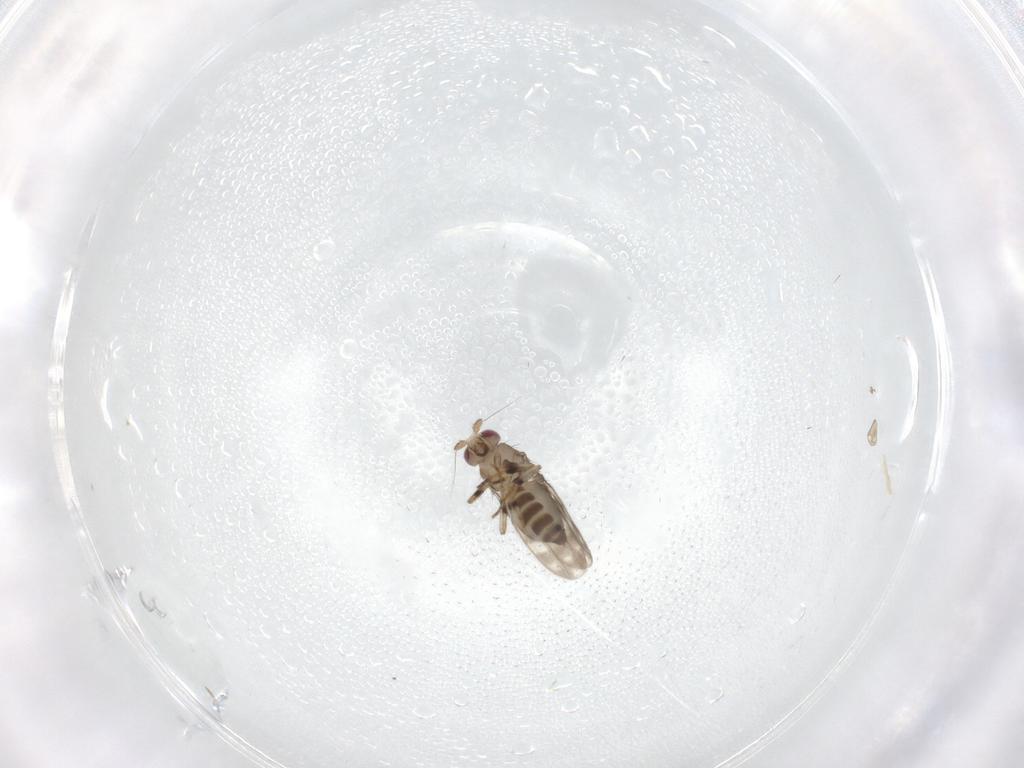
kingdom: Animalia
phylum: Arthropoda
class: Insecta
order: Diptera
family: Sphaeroceridae
